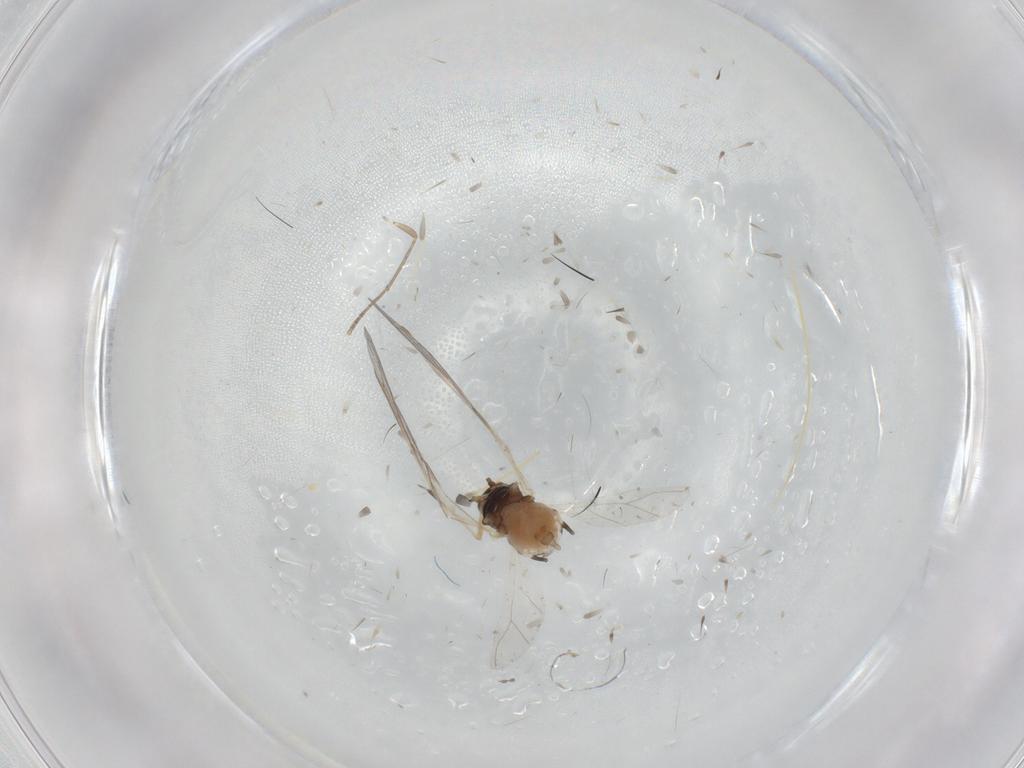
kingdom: Animalia
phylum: Arthropoda
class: Insecta
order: Hemiptera
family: Aphididae
